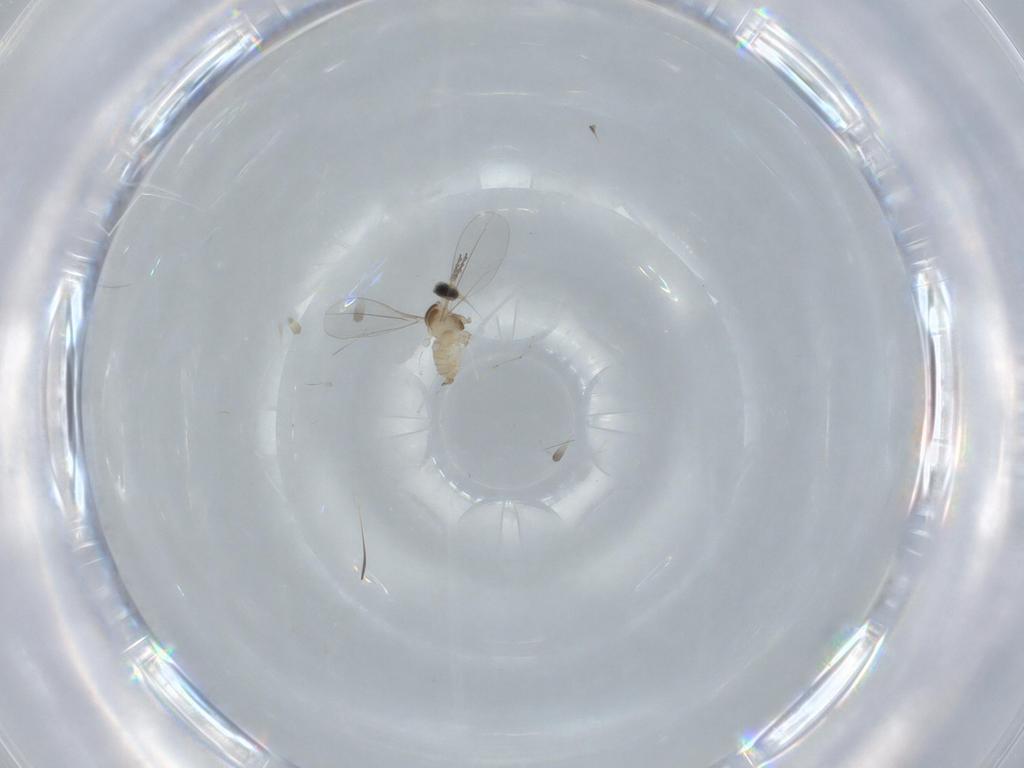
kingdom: Animalia
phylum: Arthropoda
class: Insecta
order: Diptera
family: Cecidomyiidae
